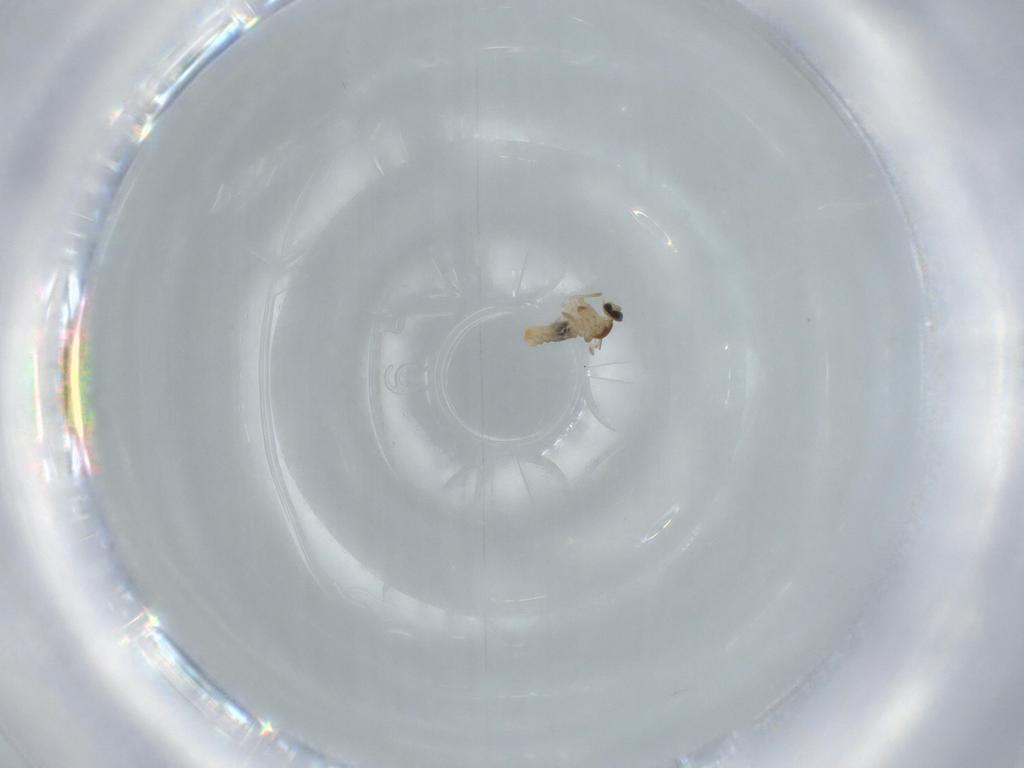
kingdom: Animalia
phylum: Arthropoda
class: Insecta
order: Diptera
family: Cecidomyiidae
